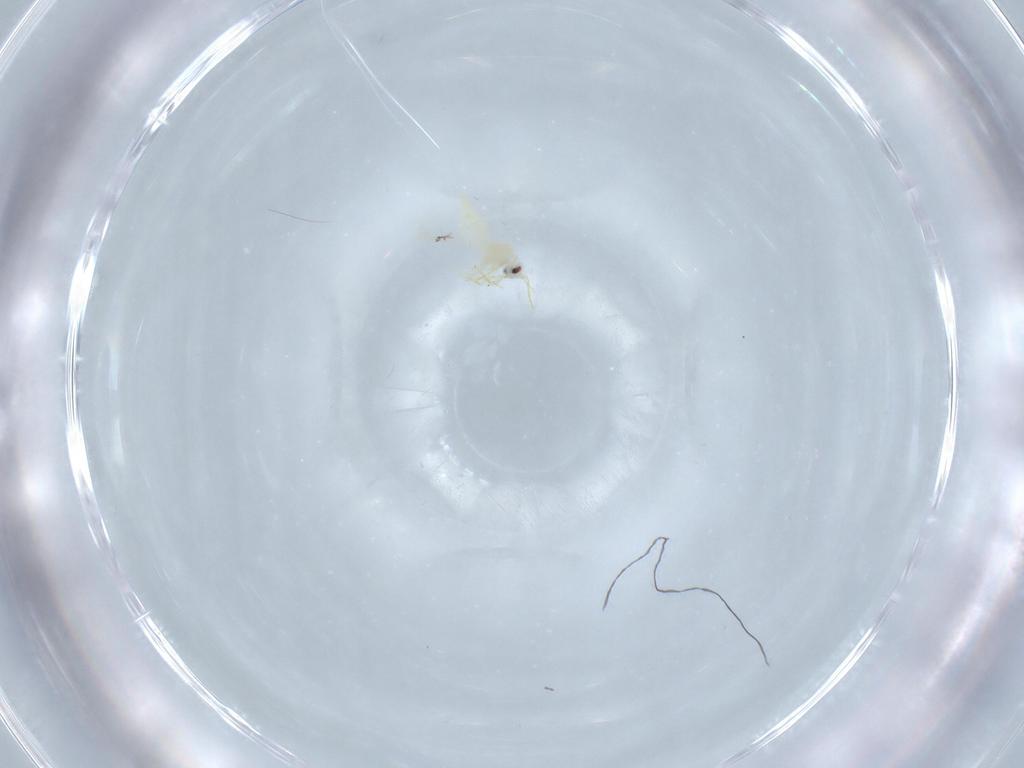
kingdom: Animalia
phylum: Arthropoda
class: Insecta
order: Hemiptera
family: Aleyrodidae
